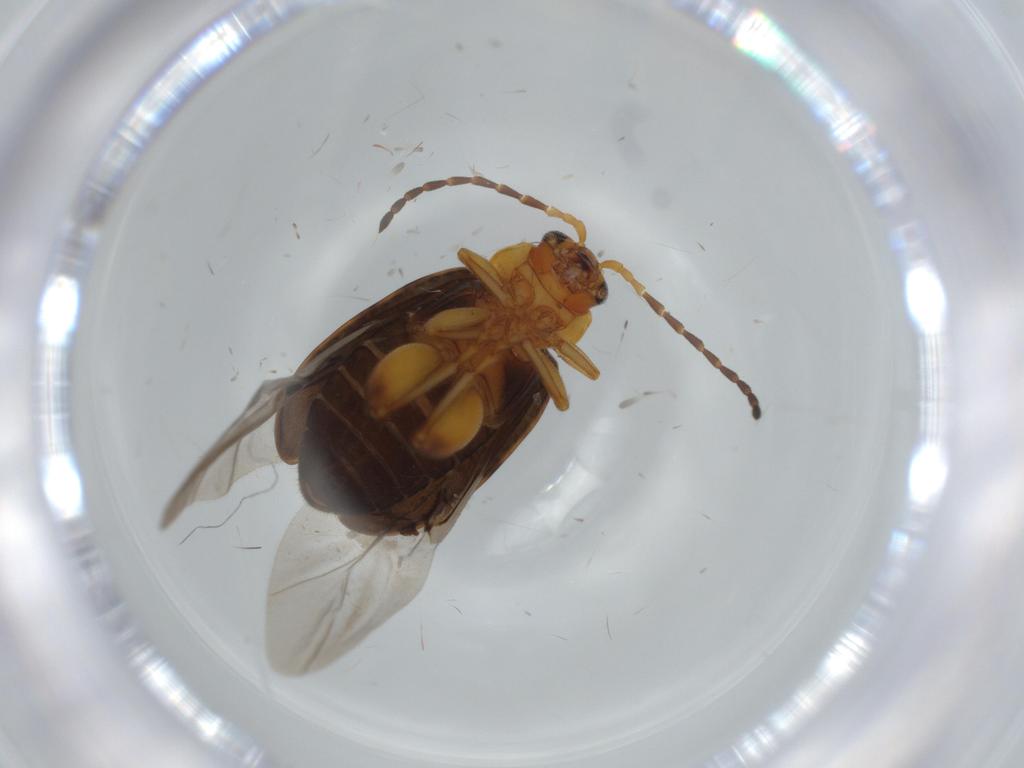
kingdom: Animalia
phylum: Arthropoda
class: Insecta
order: Coleoptera
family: Chrysomelidae
